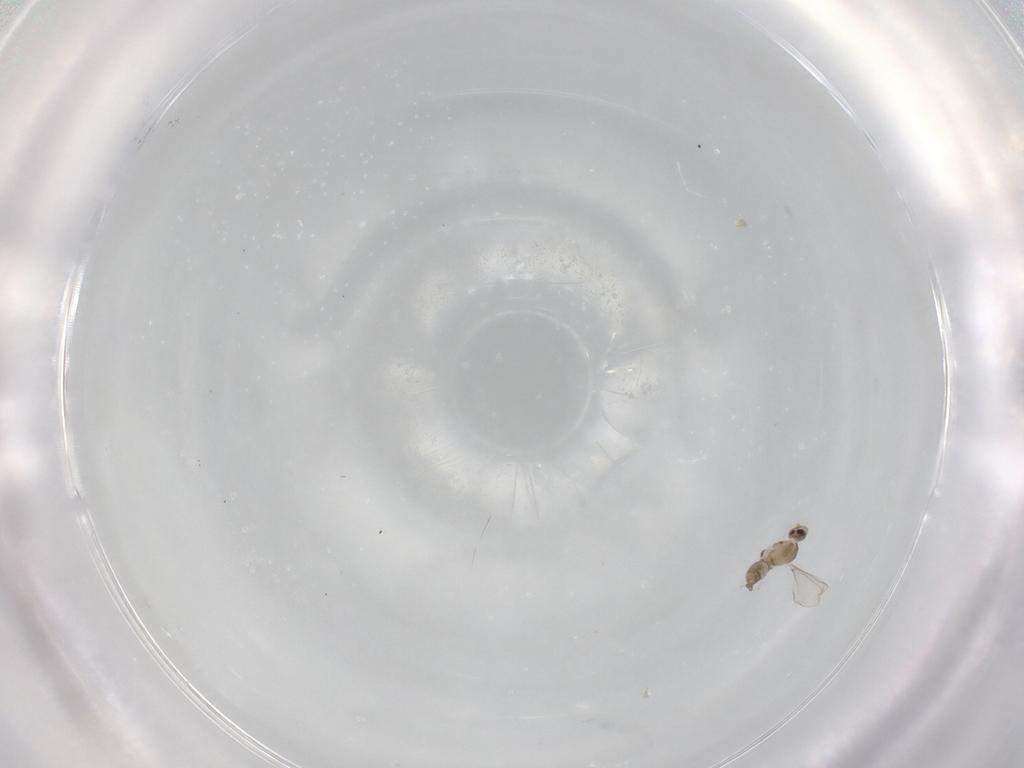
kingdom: Animalia
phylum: Arthropoda
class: Insecta
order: Diptera
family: Cecidomyiidae
